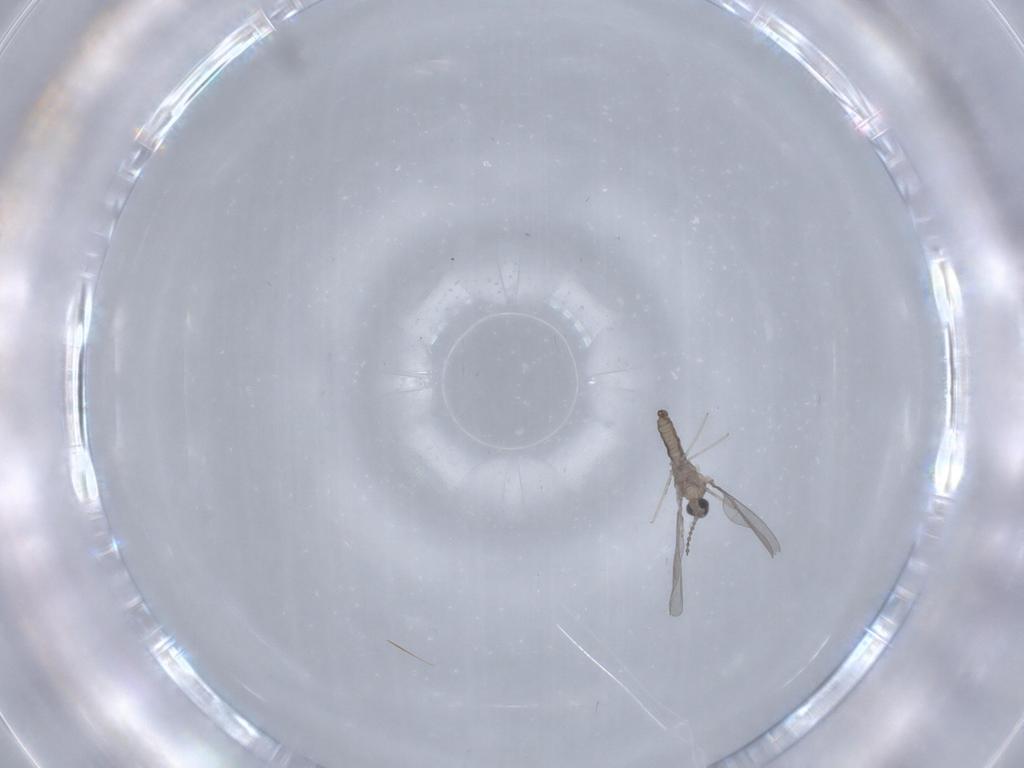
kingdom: Animalia
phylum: Arthropoda
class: Insecta
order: Diptera
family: Cecidomyiidae
